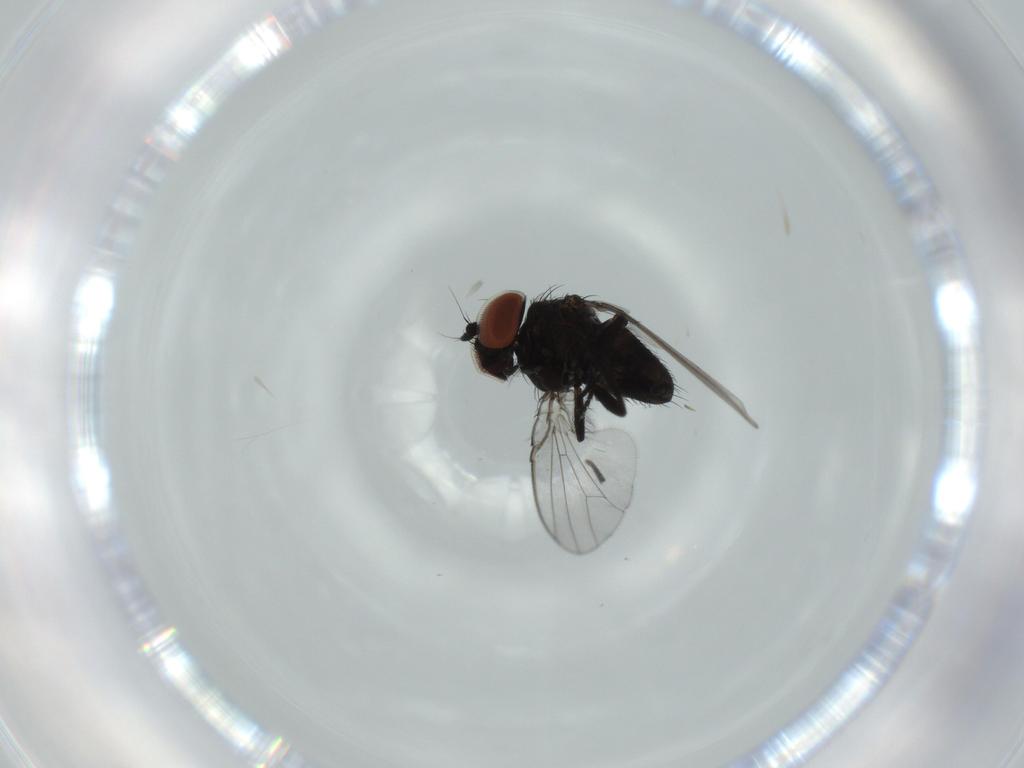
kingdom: Animalia
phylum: Arthropoda
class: Insecta
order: Diptera
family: Milichiidae
